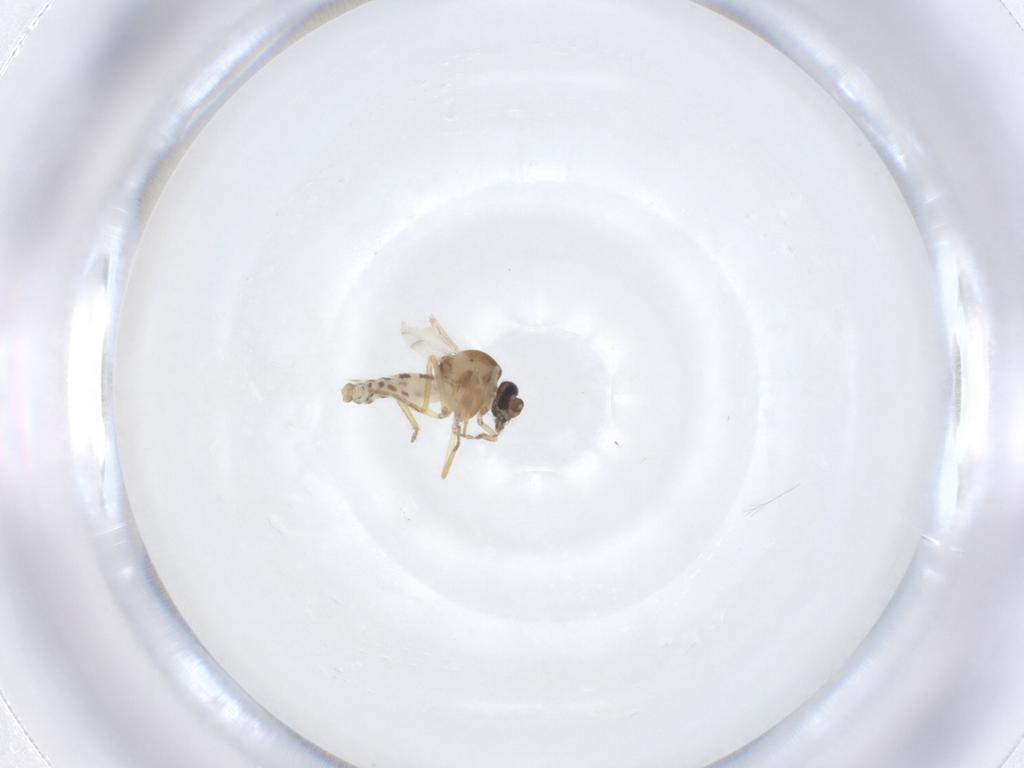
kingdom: Animalia
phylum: Arthropoda
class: Insecta
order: Diptera
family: Ceratopogonidae
